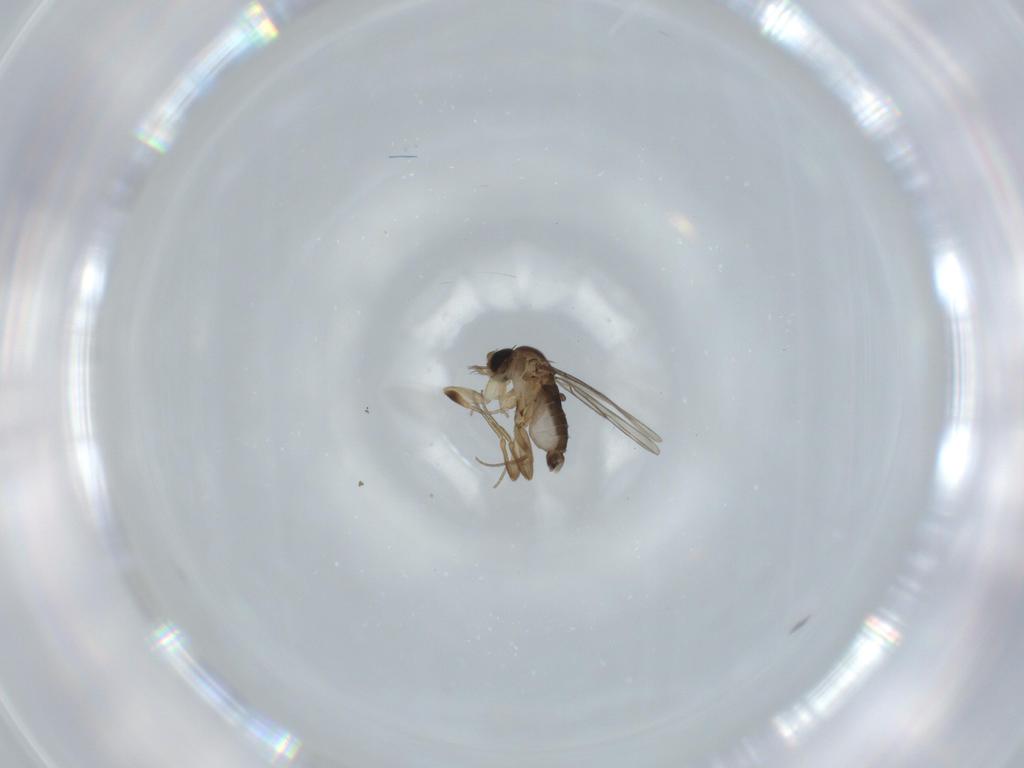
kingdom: Animalia
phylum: Arthropoda
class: Insecta
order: Diptera
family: Phoridae
